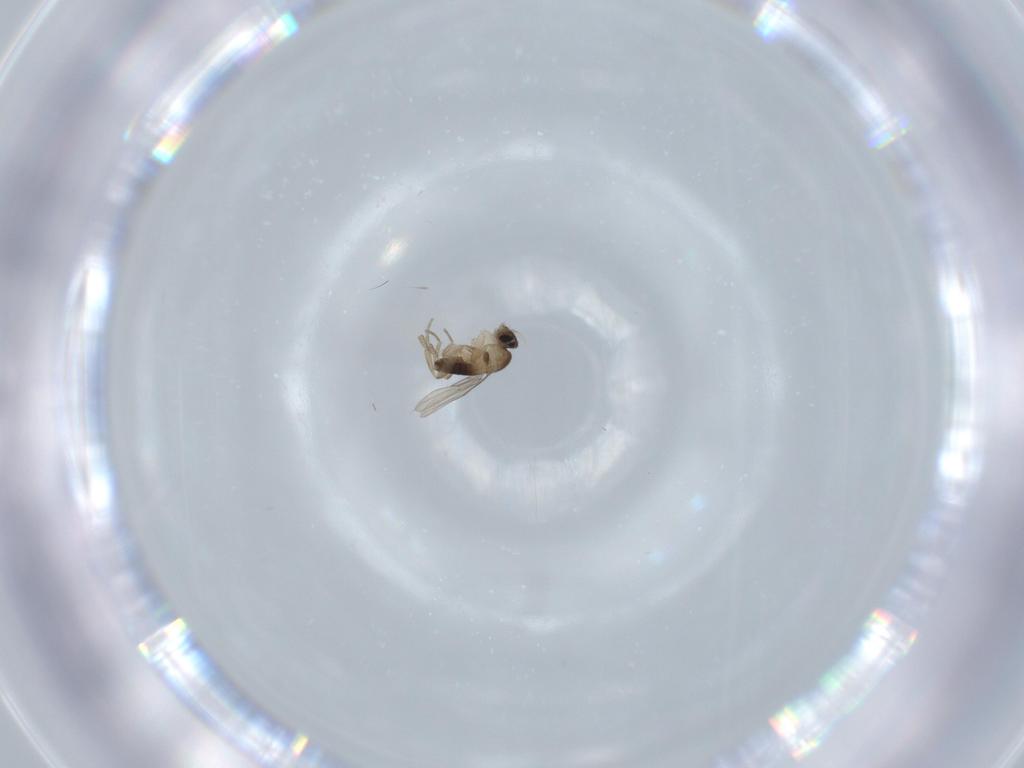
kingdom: Animalia
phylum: Arthropoda
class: Insecta
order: Diptera
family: Phoridae
